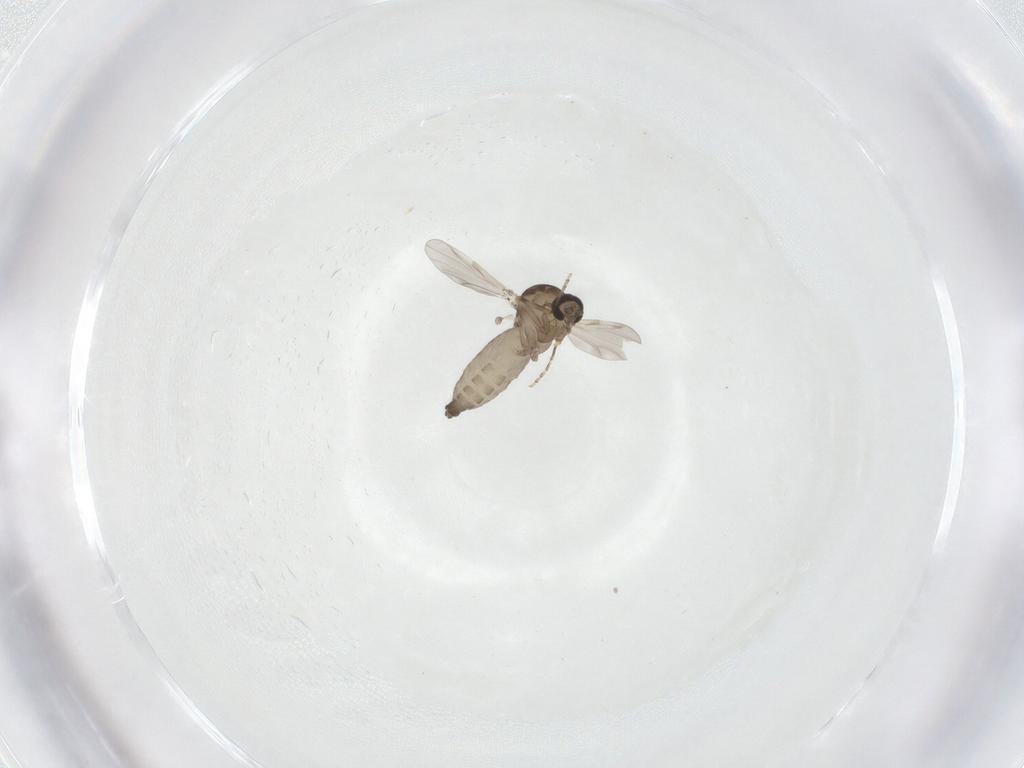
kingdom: Animalia
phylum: Arthropoda
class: Insecta
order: Diptera
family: Ceratopogonidae
